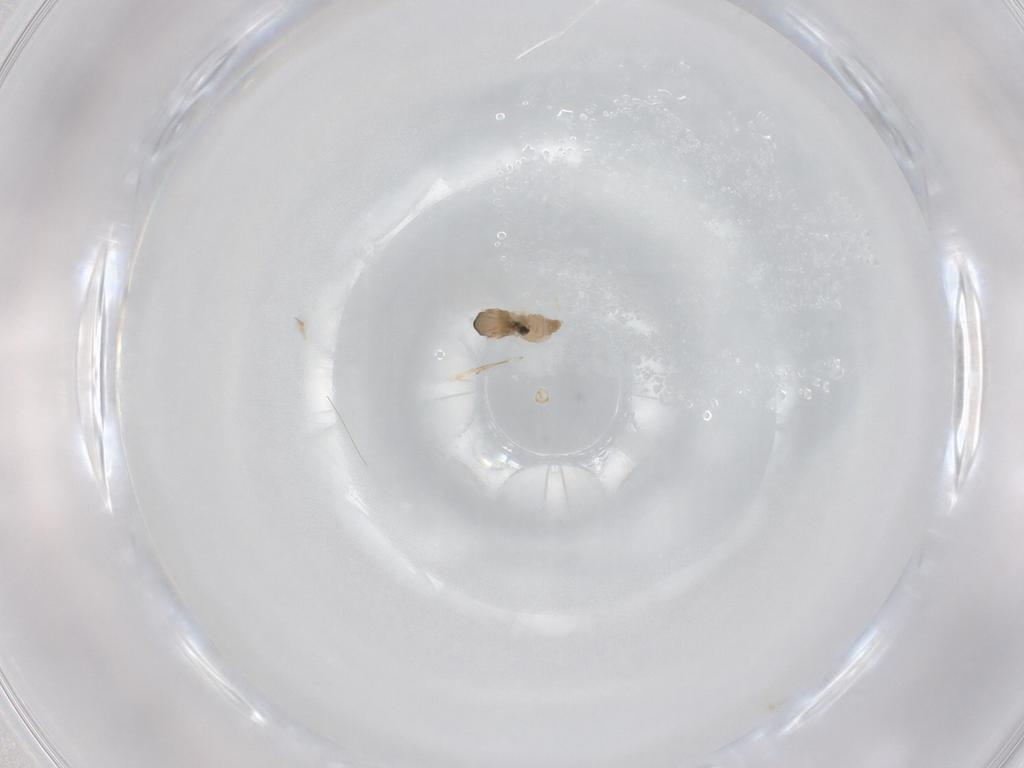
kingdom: Animalia
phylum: Arthropoda
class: Insecta
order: Diptera
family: Cecidomyiidae
